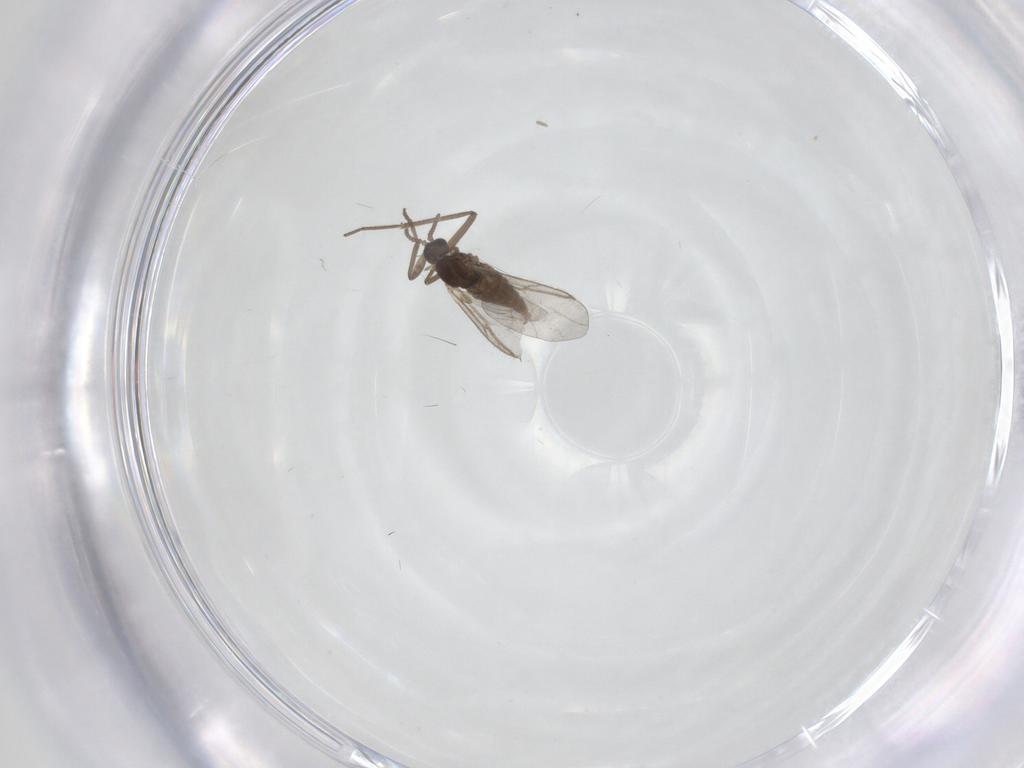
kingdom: Animalia
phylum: Arthropoda
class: Insecta
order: Diptera
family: Cecidomyiidae
